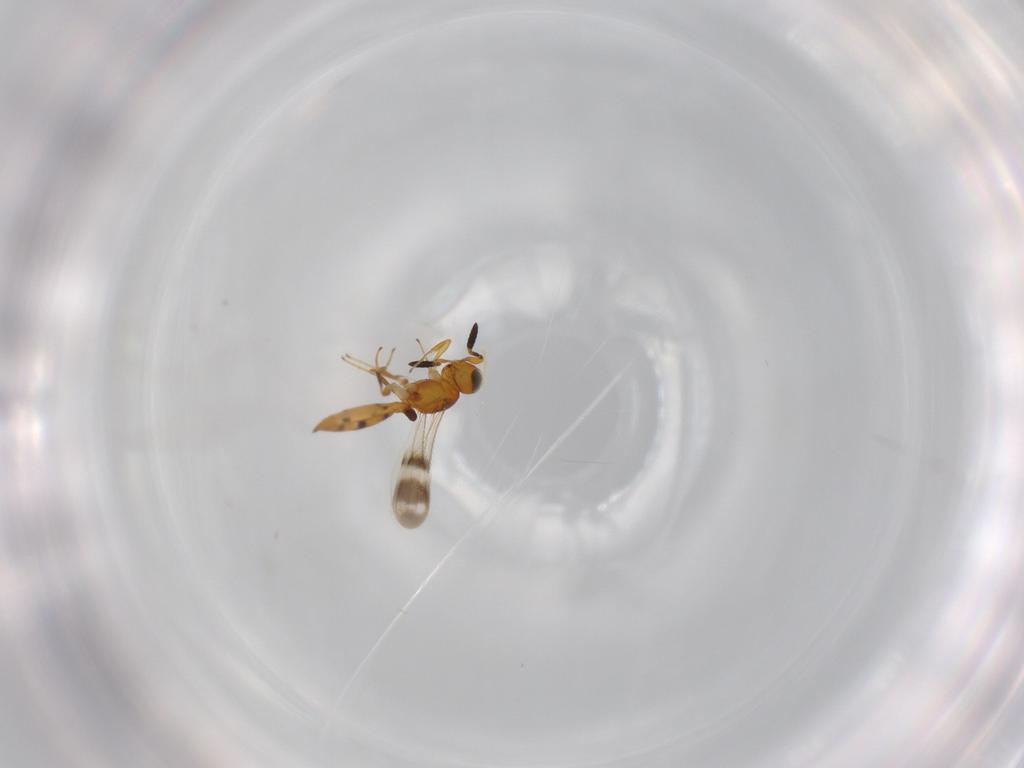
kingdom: Animalia
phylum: Arthropoda
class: Insecta
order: Hymenoptera
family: Scelionidae
